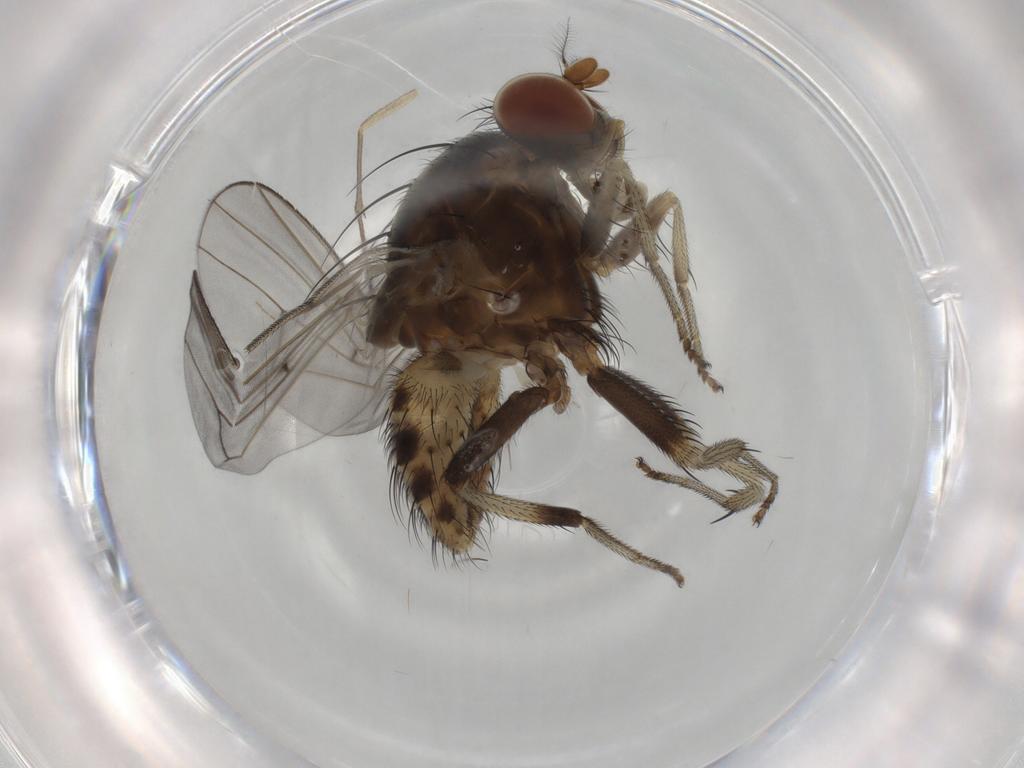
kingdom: Animalia
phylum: Arthropoda
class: Insecta
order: Diptera
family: Lauxaniidae
